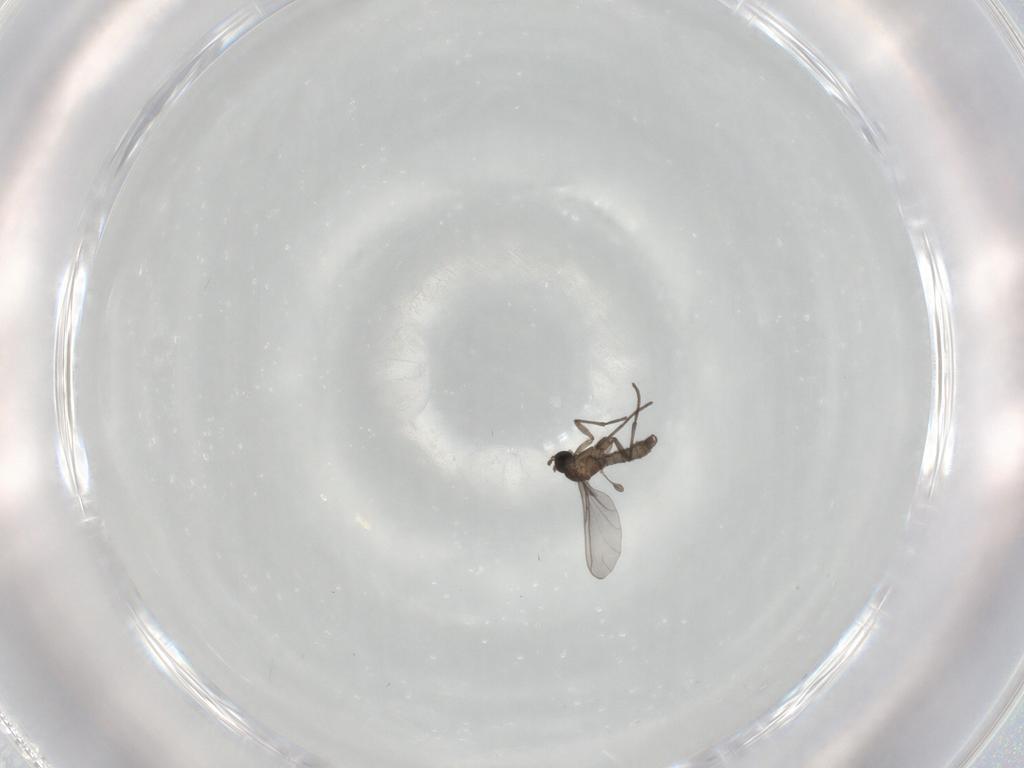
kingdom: Animalia
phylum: Arthropoda
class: Insecta
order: Diptera
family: Sciaridae
